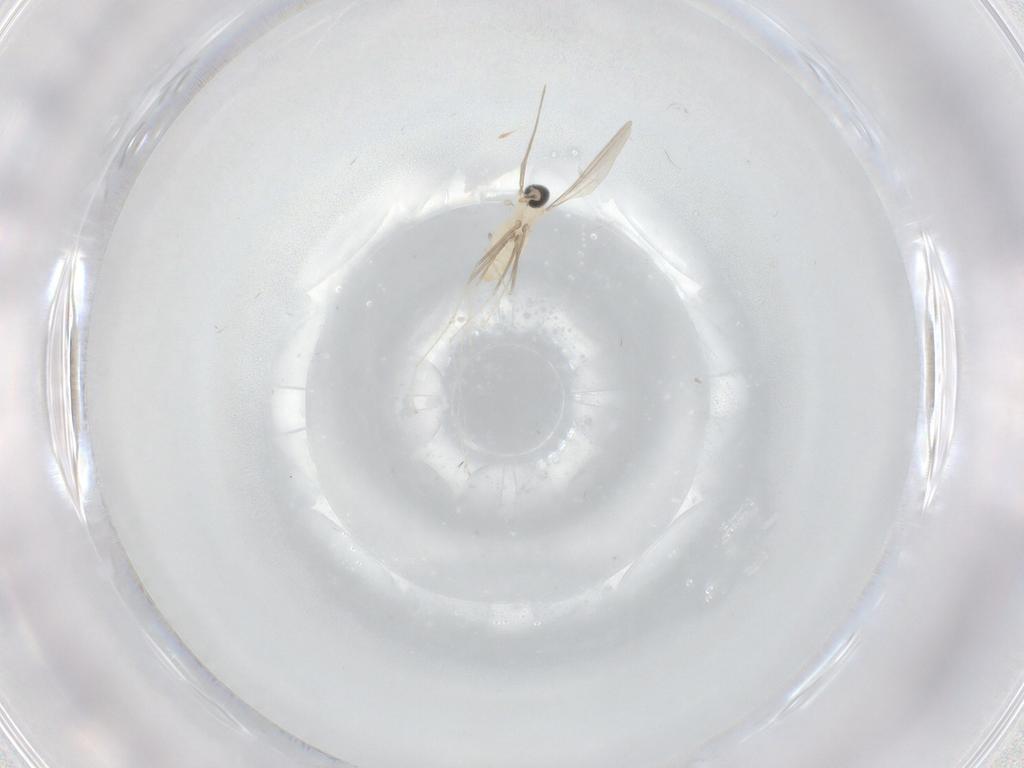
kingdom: Animalia
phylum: Arthropoda
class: Insecta
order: Diptera
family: Cecidomyiidae
